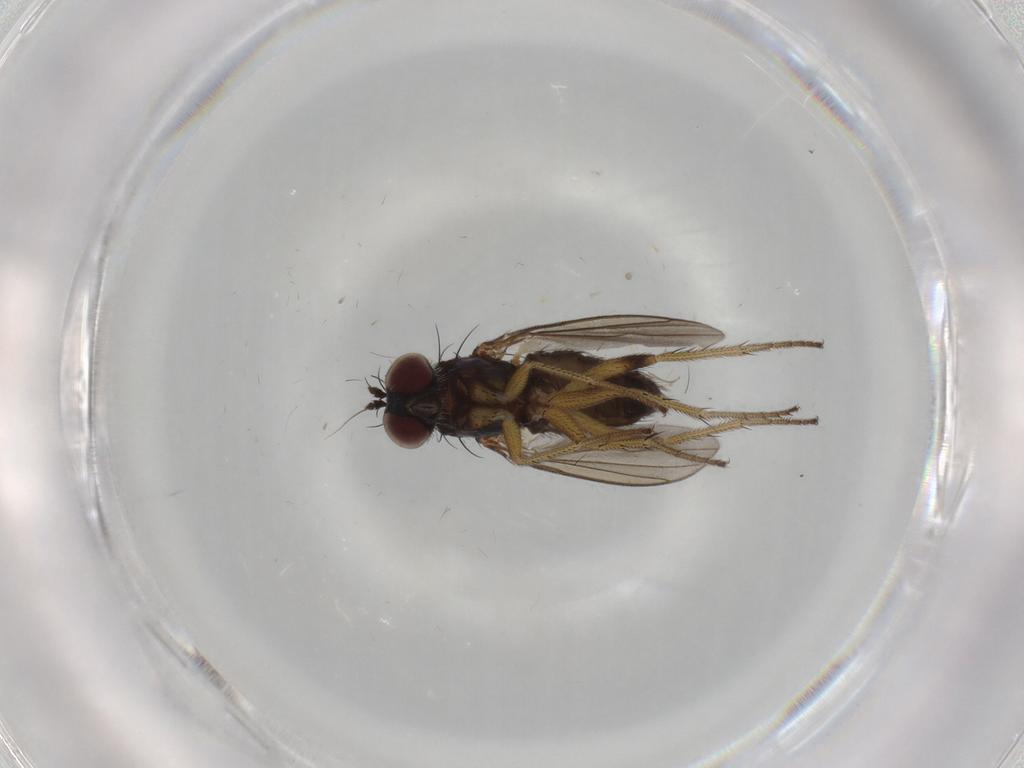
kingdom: Animalia
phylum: Arthropoda
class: Insecta
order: Diptera
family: Dolichopodidae
